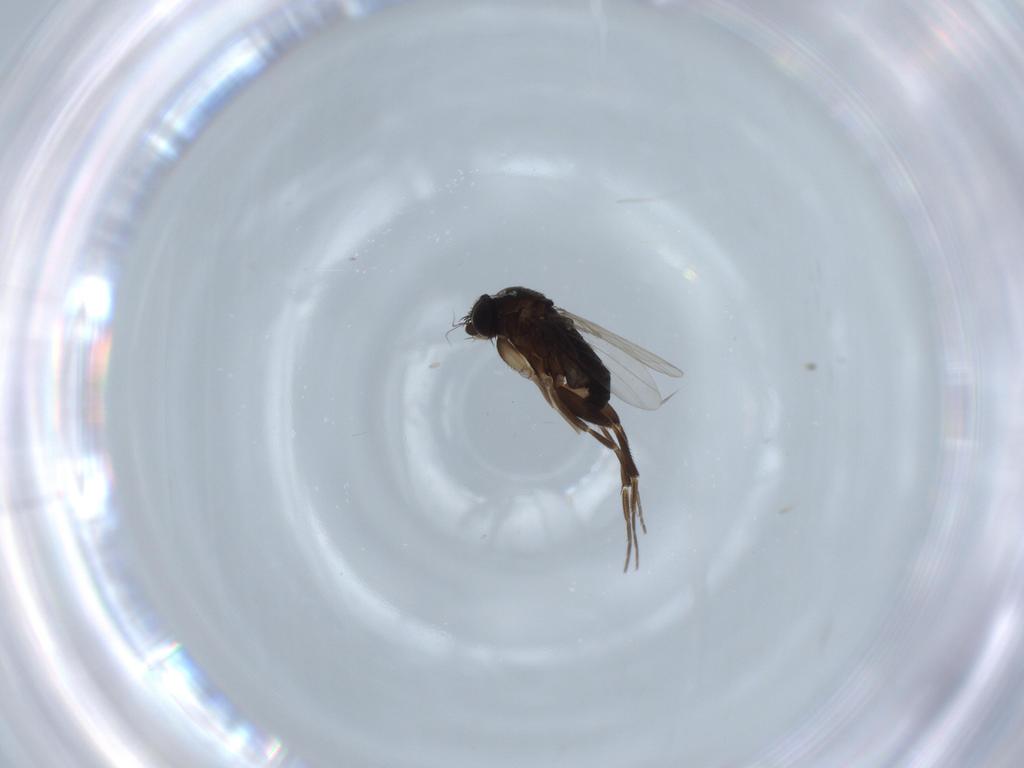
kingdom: Animalia
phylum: Arthropoda
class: Insecta
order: Diptera
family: Phoridae
